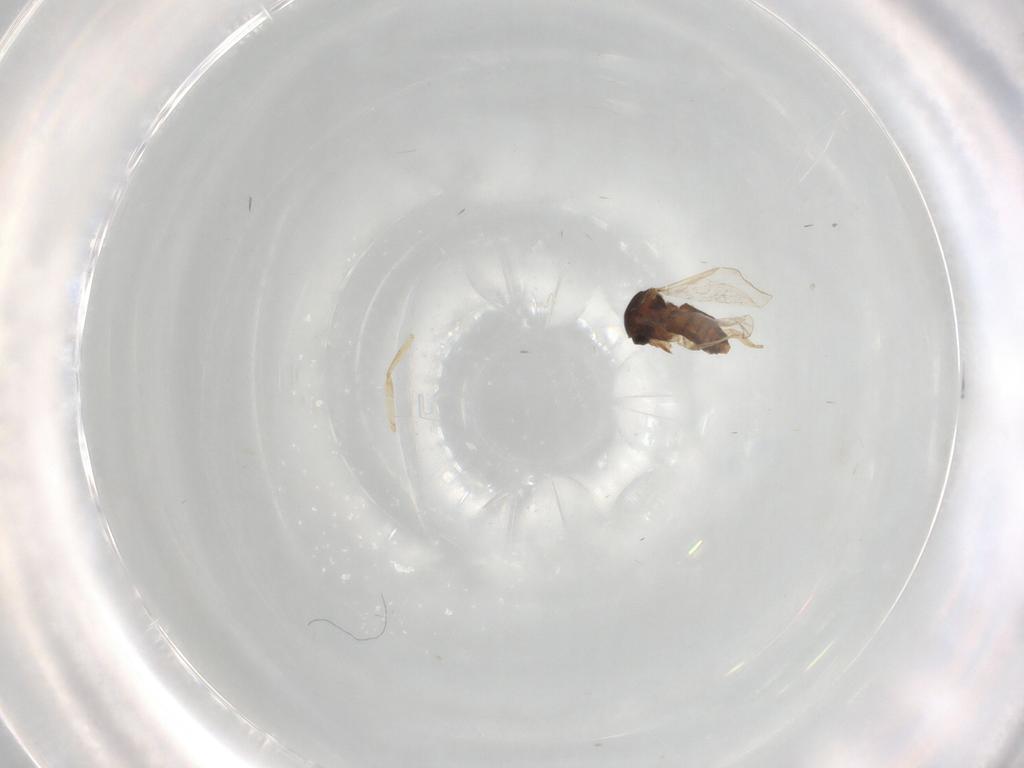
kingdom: Animalia
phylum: Arthropoda
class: Insecta
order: Diptera
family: Ceratopogonidae
